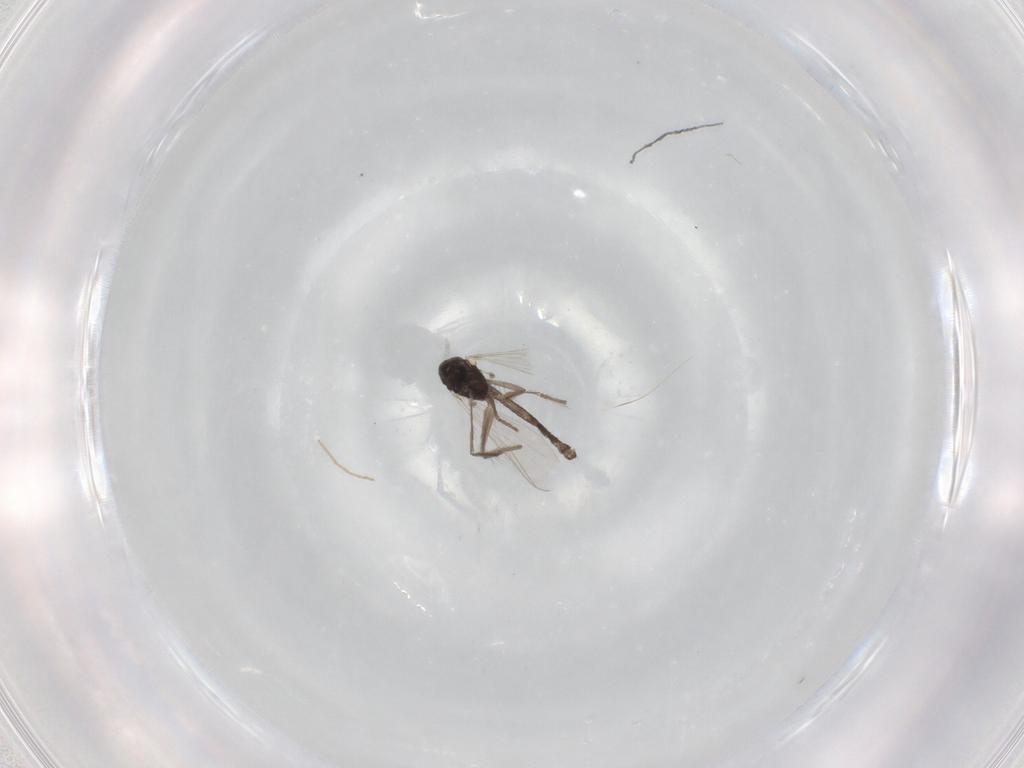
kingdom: Animalia
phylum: Arthropoda
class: Insecta
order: Diptera
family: Chironomidae
